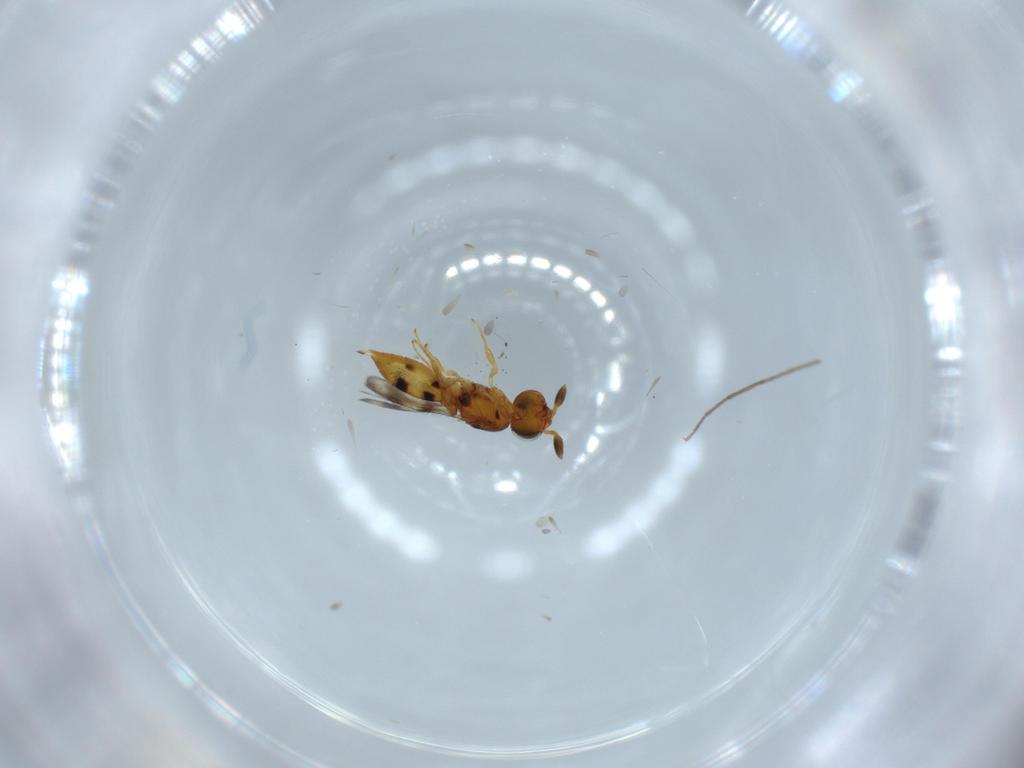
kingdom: Animalia
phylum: Arthropoda
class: Insecta
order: Hymenoptera
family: Scelionidae
